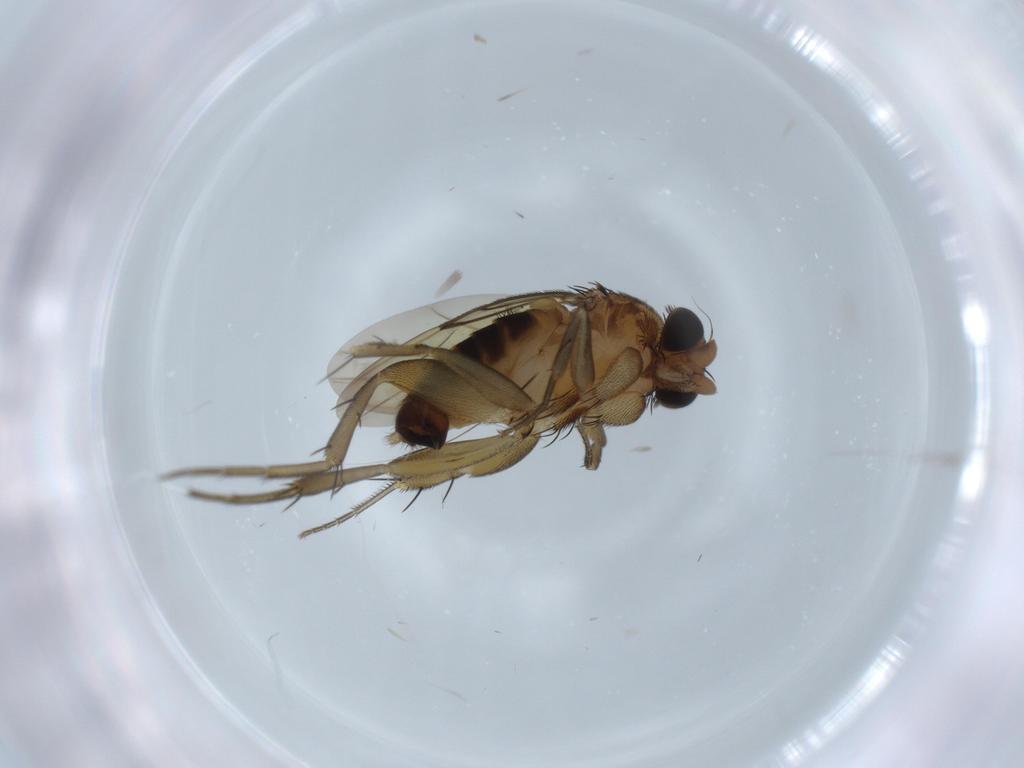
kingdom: Animalia
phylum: Arthropoda
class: Insecta
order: Diptera
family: Phoridae
